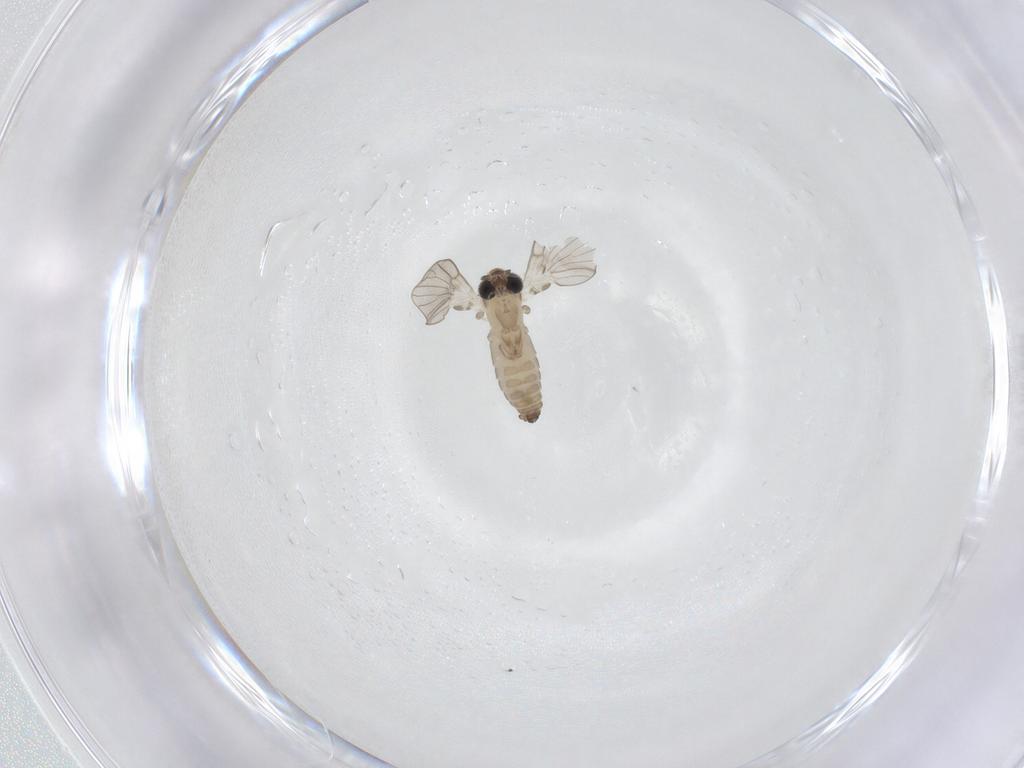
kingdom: Animalia
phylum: Arthropoda
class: Insecta
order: Diptera
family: Psychodidae
